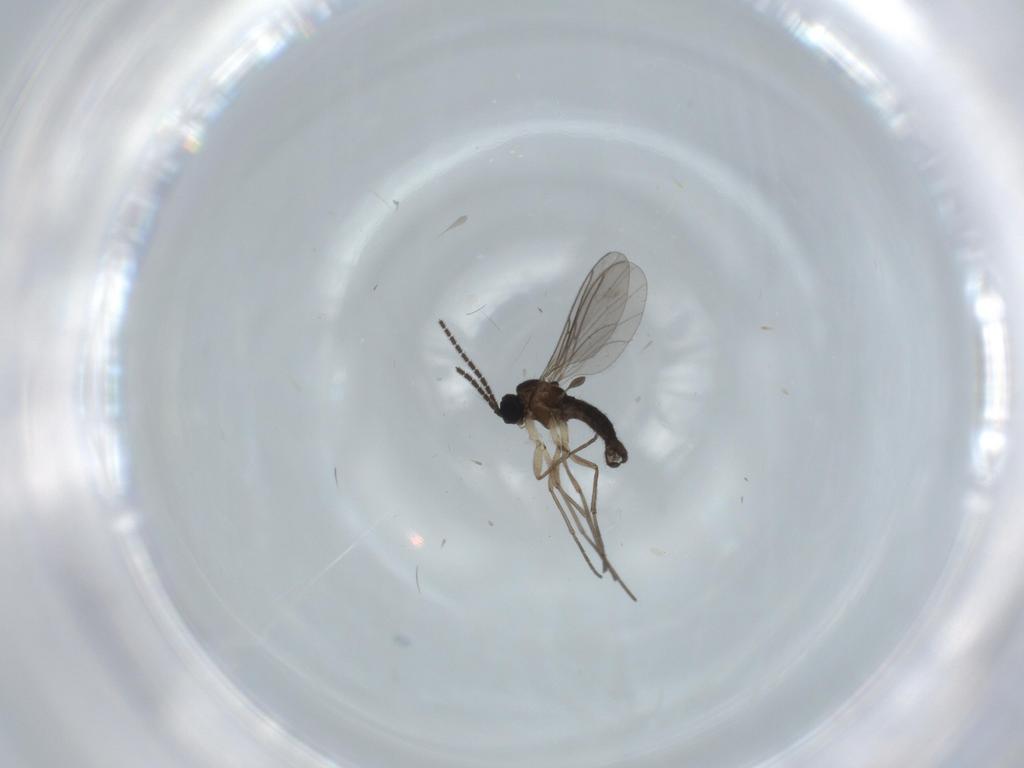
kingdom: Animalia
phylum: Arthropoda
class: Insecta
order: Diptera
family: Sciaridae
